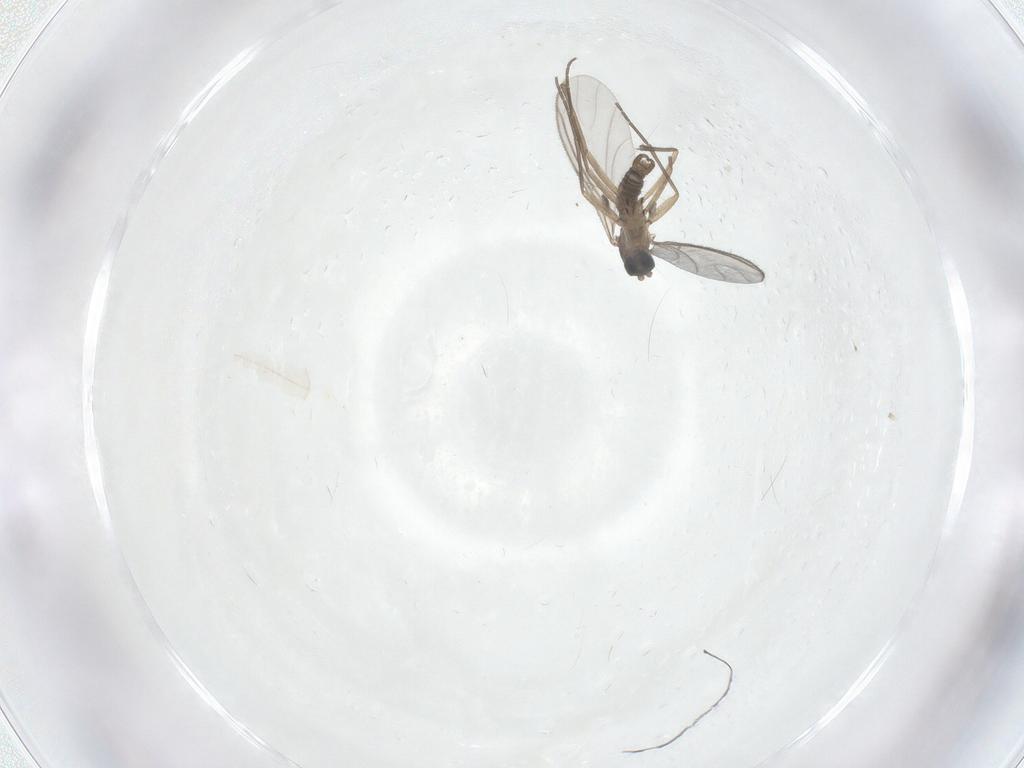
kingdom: Animalia
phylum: Arthropoda
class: Insecta
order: Diptera
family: Sciaridae
